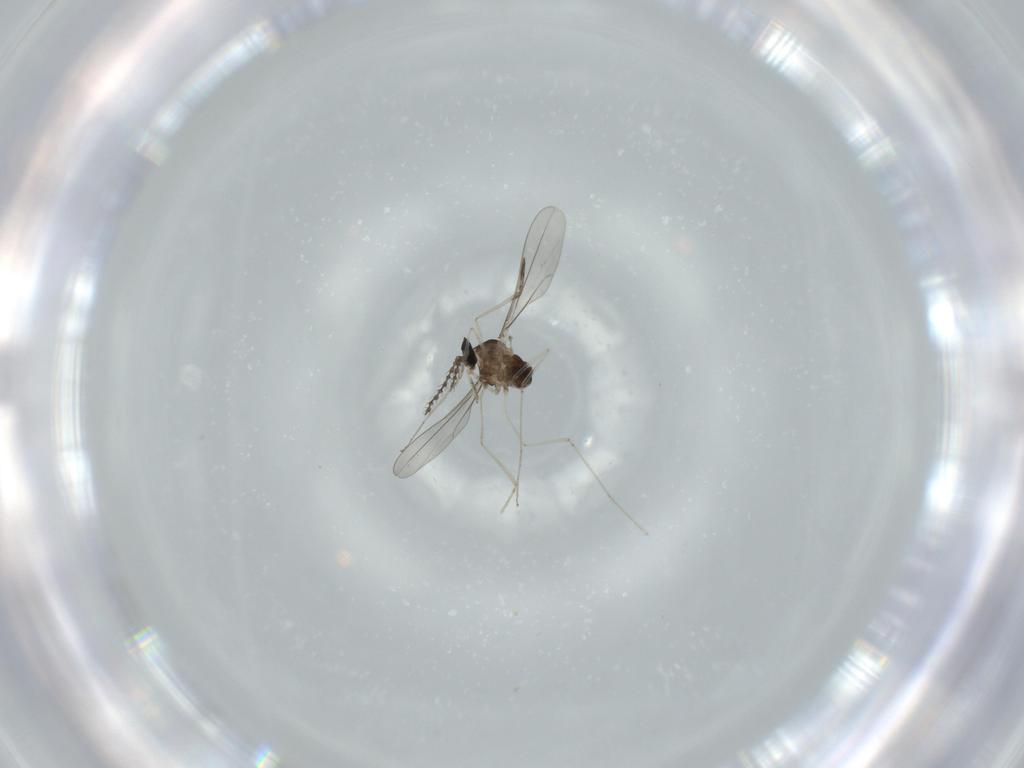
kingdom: Animalia
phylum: Arthropoda
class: Insecta
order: Diptera
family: Cecidomyiidae
